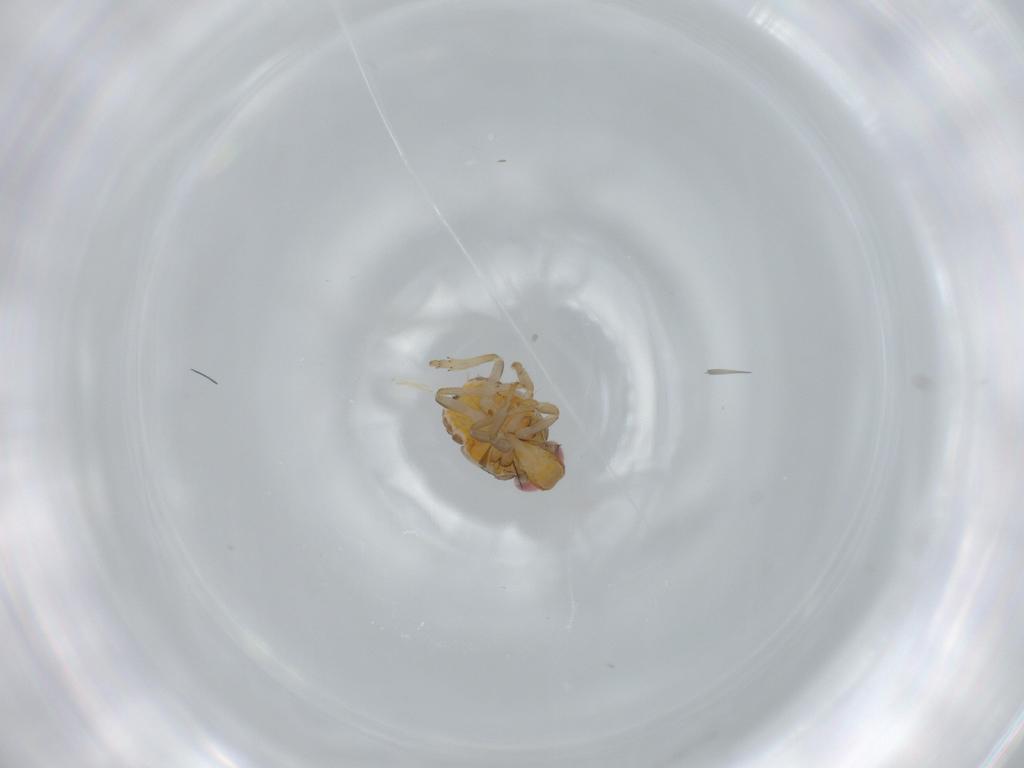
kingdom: Animalia
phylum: Arthropoda
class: Insecta
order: Hemiptera
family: Issidae
